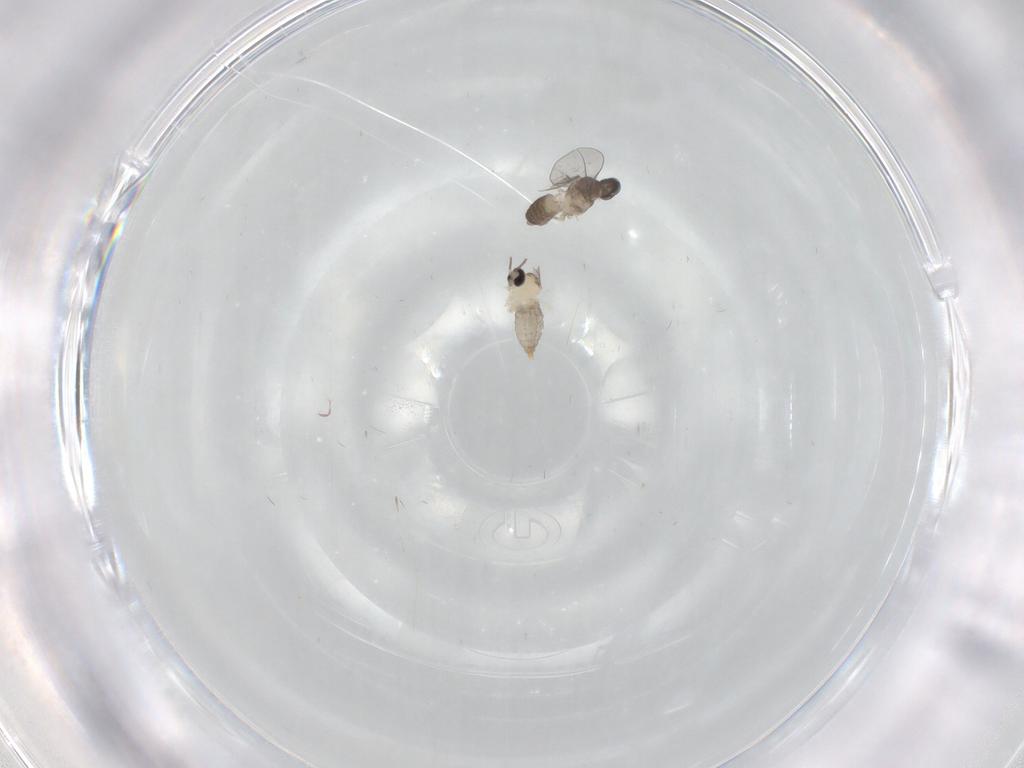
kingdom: Animalia
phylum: Arthropoda
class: Insecta
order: Diptera
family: Cecidomyiidae
